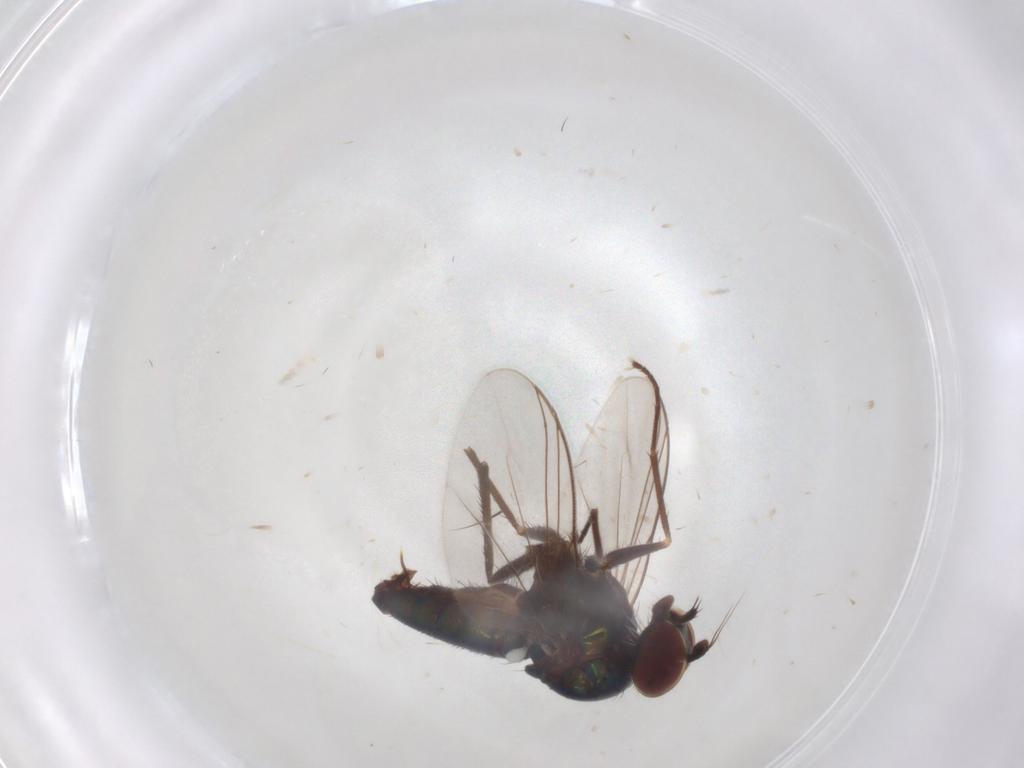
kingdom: Animalia
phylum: Arthropoda
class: Insecta
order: Diptera
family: Dolichopodidae
